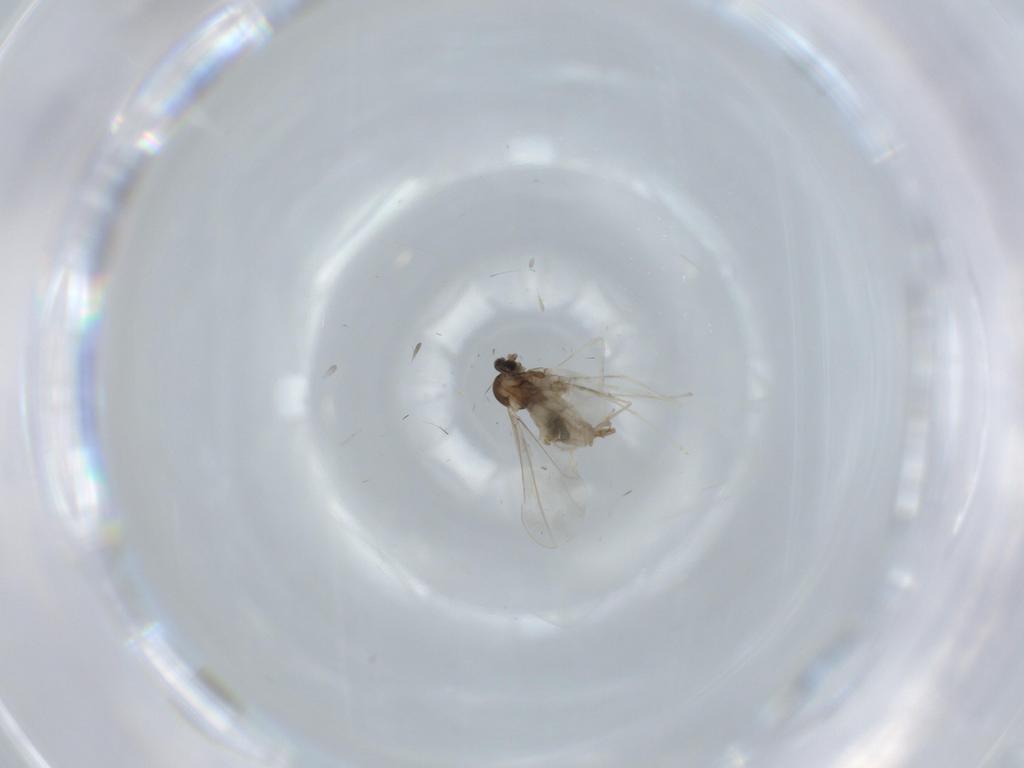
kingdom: Animalia
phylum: Arthropoda
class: Insecta
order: Diptera
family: Cecidomyiidae
